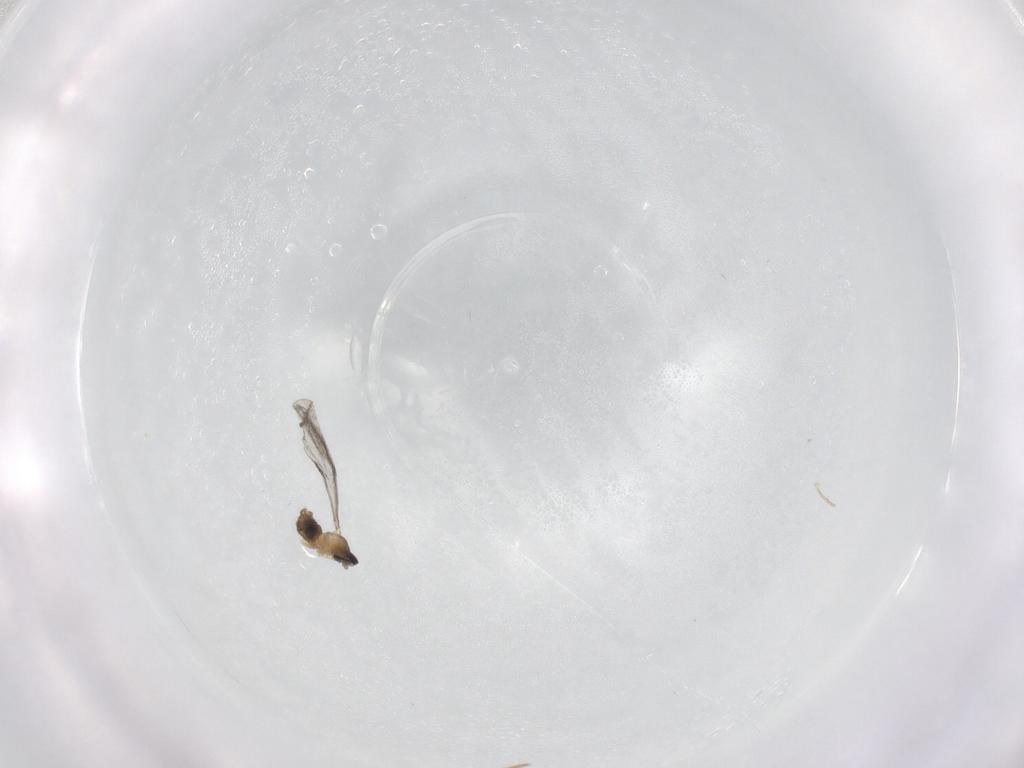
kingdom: Animalia
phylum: Arthropoda
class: Insecta
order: Diptera
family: Cecidomyiidae
